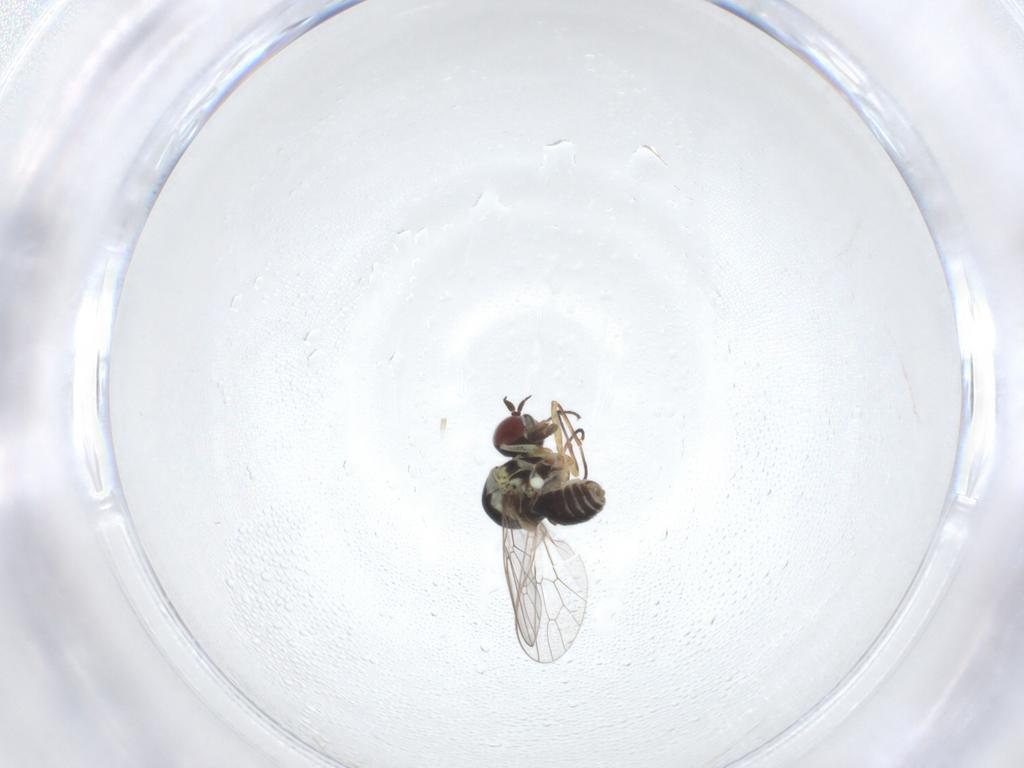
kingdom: Animalia
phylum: Arthropoda
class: Insecta
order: Diptera
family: Bombyliidae
